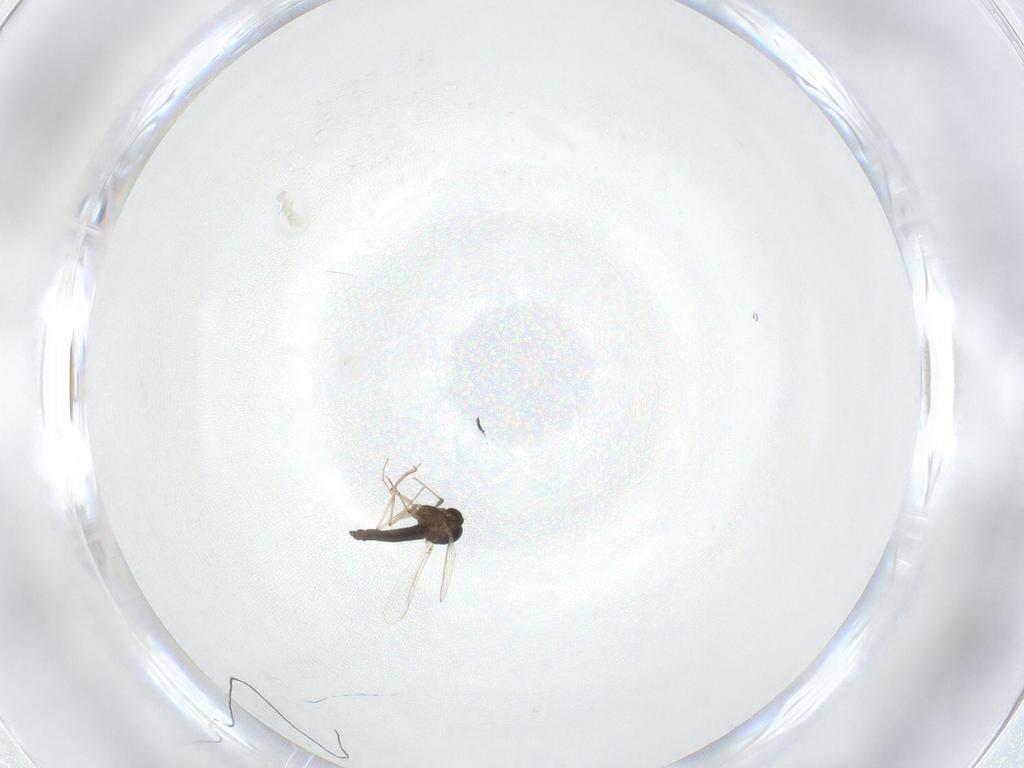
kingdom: Animalia
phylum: Arthropoda
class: Insecta
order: Diptera
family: Chironomidae
